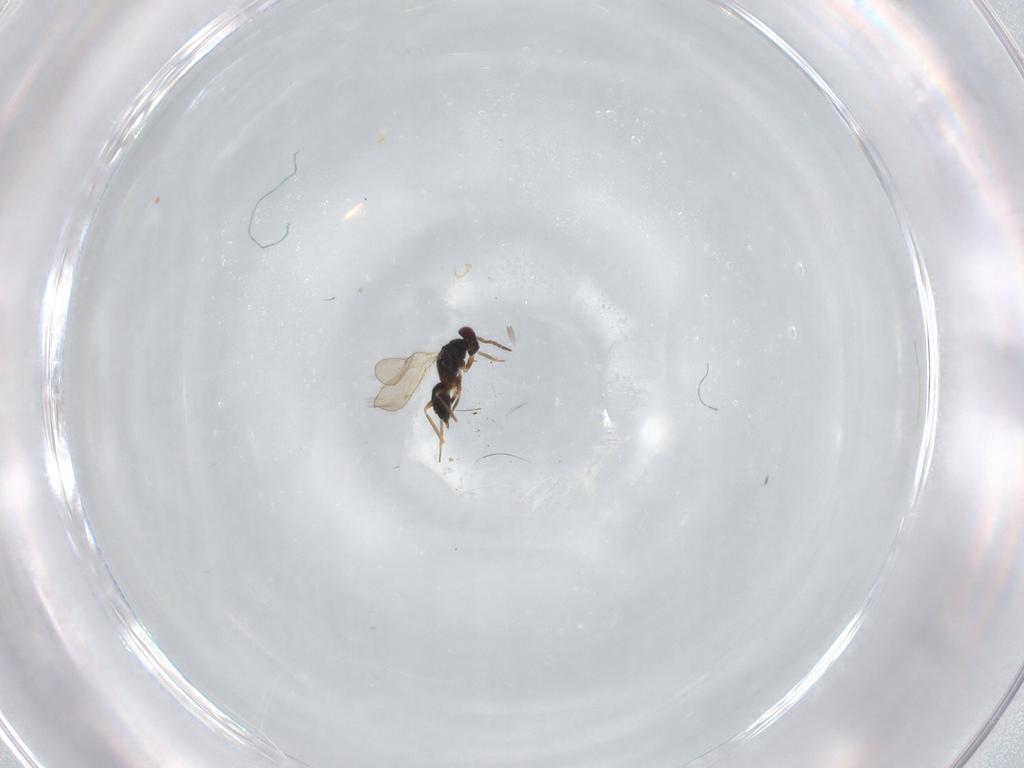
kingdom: Animalia
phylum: Arthropoda
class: Insecta
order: Hymenoptera
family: Tetracampidae
